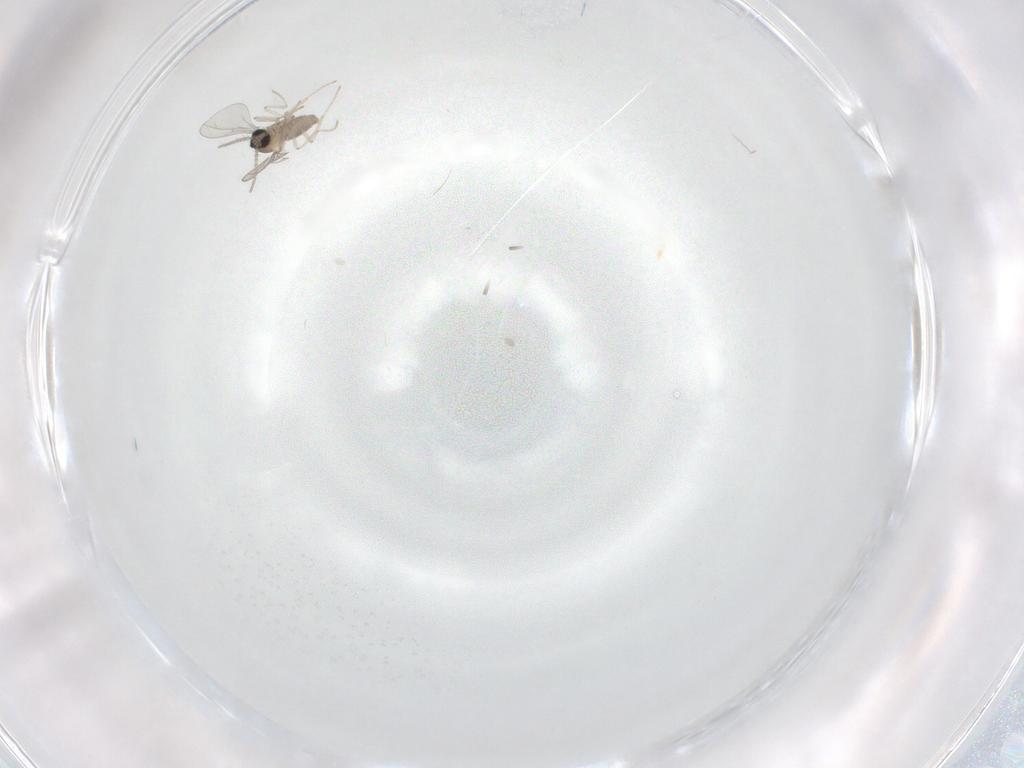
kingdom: Animalia
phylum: Arthropoda
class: Insecta
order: Diptera
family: Cecidomyiidae
